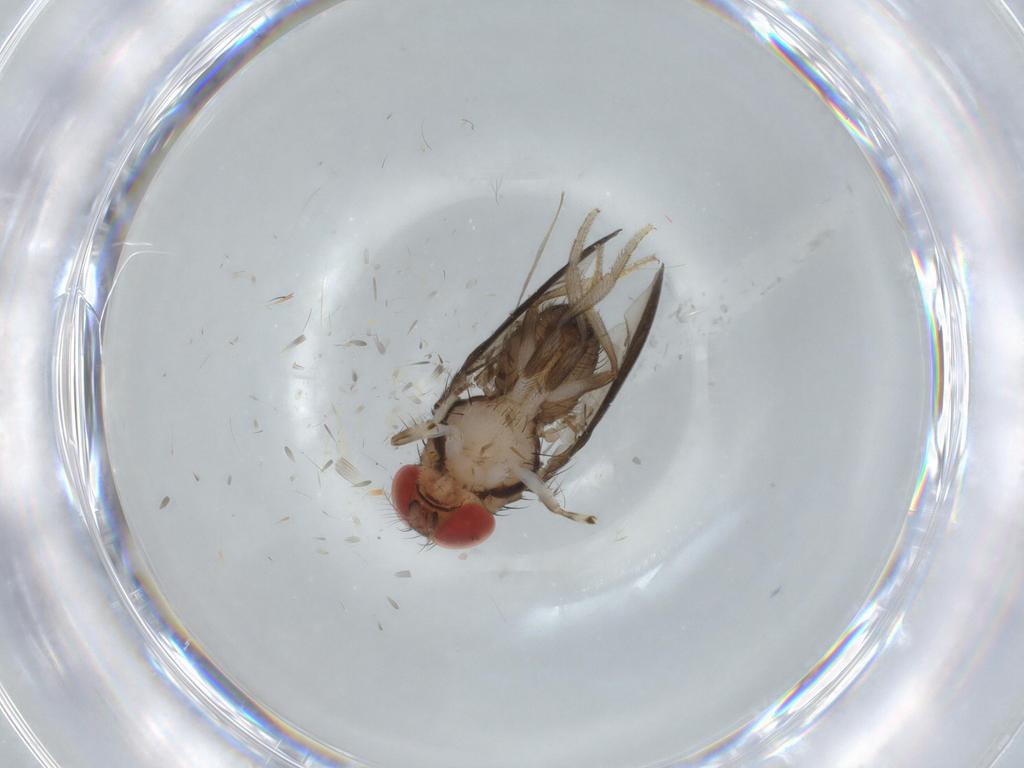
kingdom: Animalia
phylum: Arthropoda
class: Insecta
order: Diptera
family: Drosophilidae
